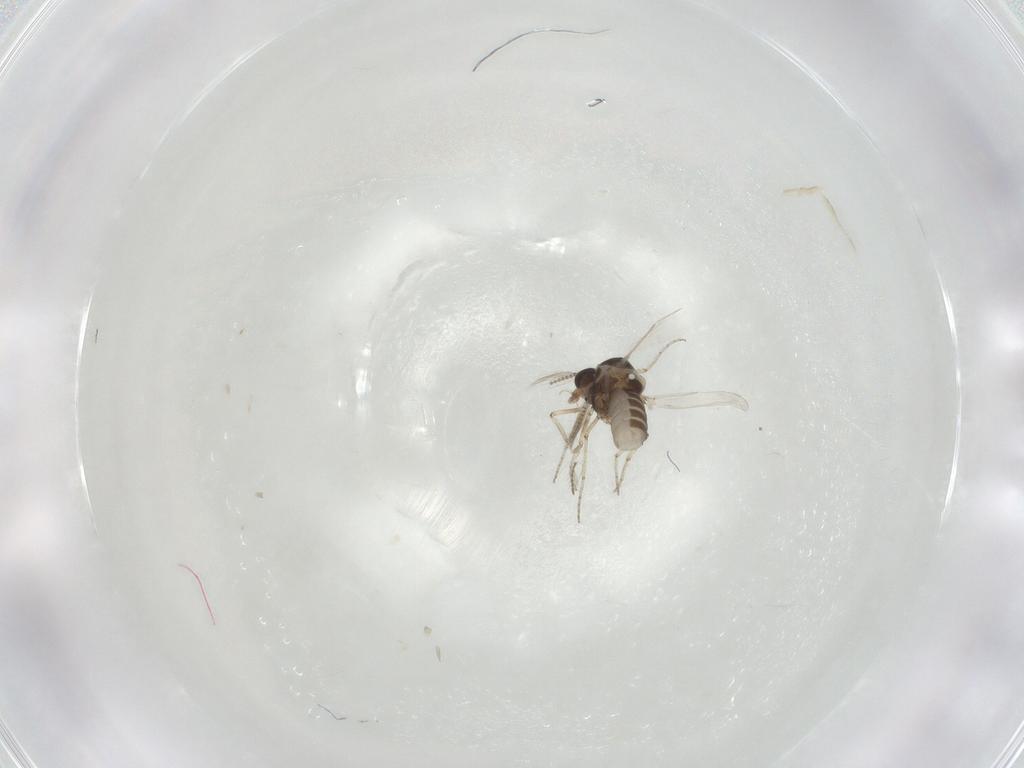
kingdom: Animalia
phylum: Arthropoda
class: Insecta
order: Diptera
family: Ceratopogonidae
